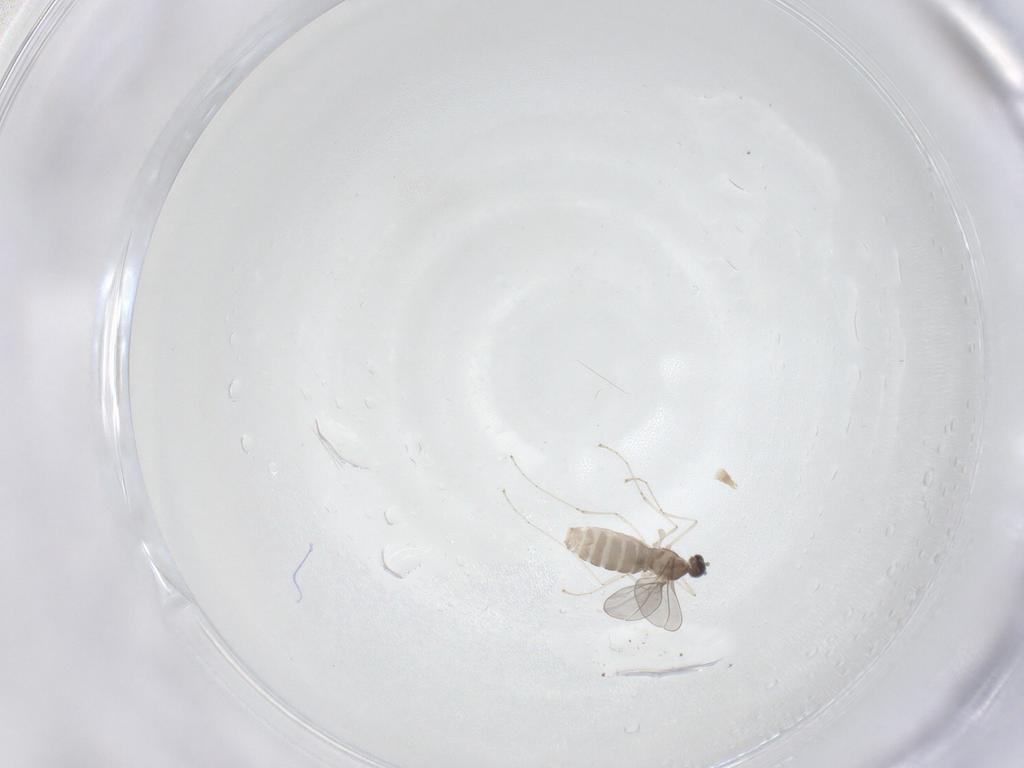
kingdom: Animalia
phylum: Arthropoda
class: Insecta
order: Diptera
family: Cecidomyiidae
